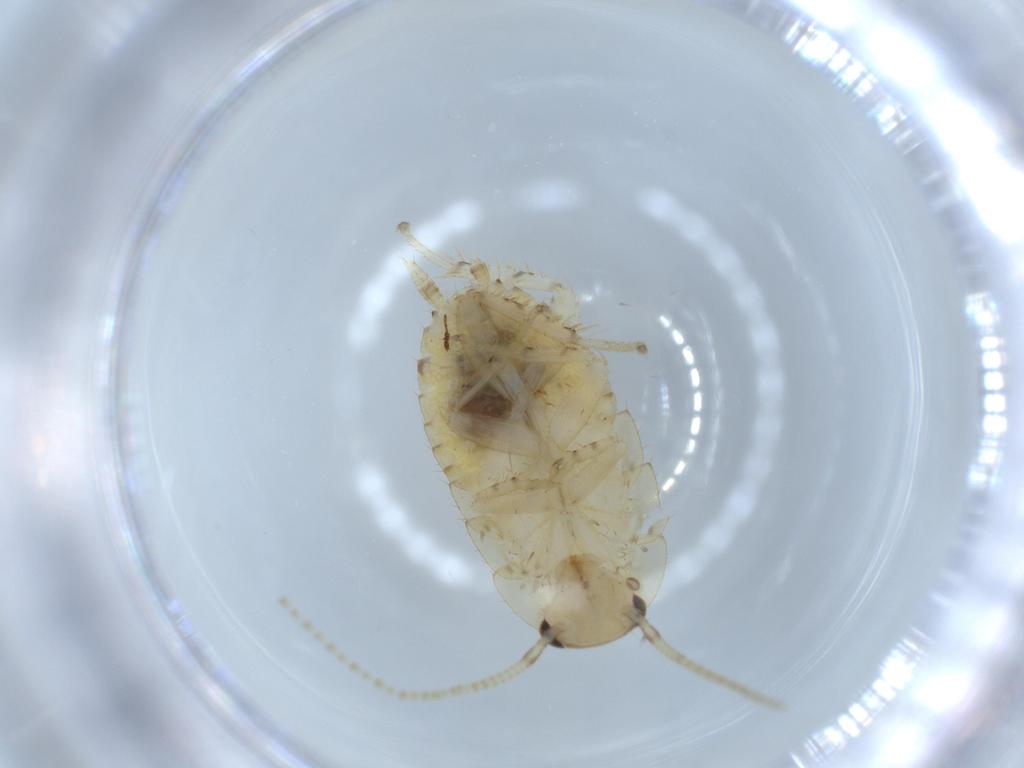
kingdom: Animalia
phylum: Arthropoda
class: Insecta
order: Blattodea
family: Ectobiidae
